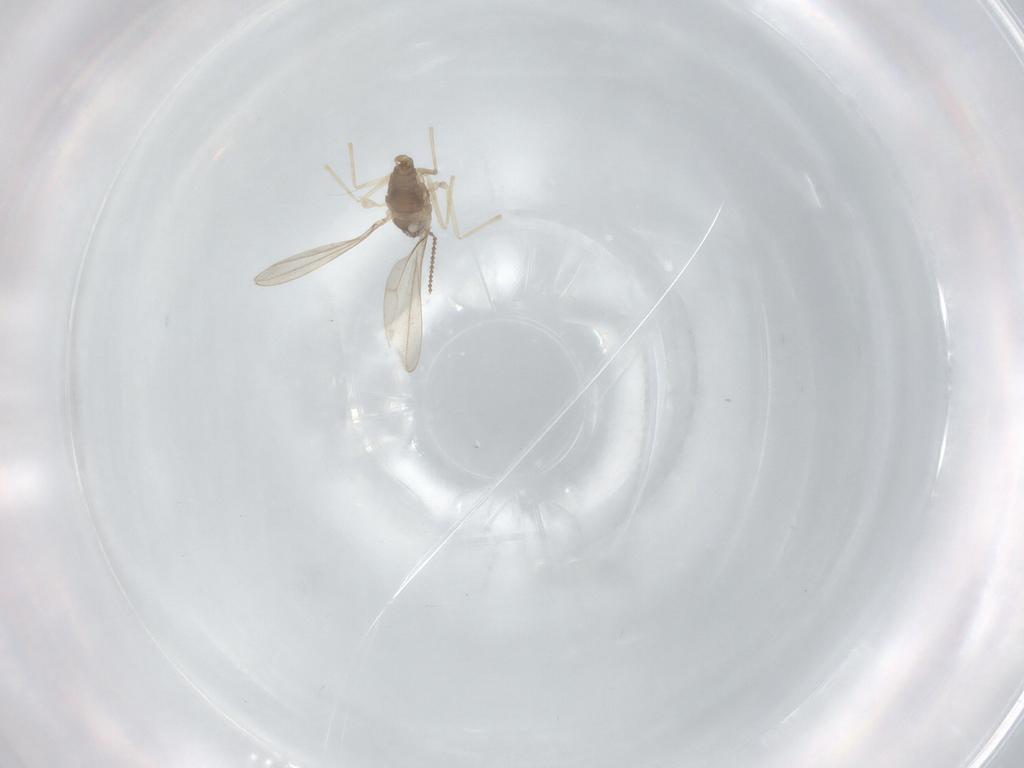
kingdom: Animalia
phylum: Arthropoda
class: Insecta
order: Diptera
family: Ceratopogonidae
